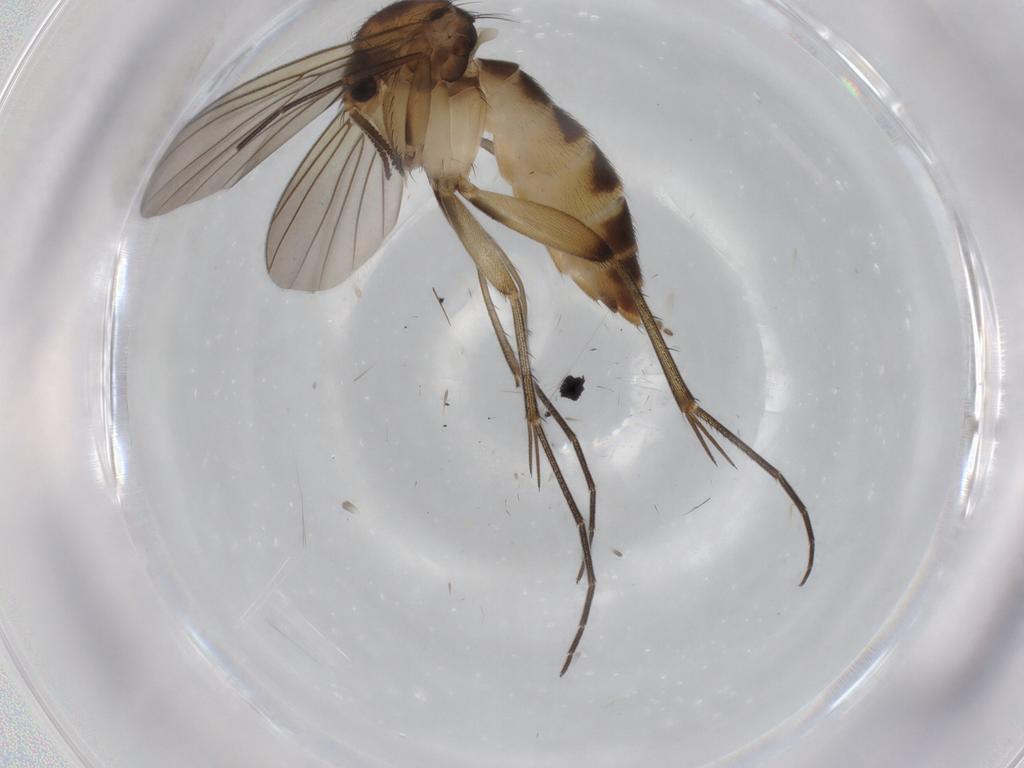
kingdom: Animalia
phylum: Arthropoda
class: Insecta
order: Diptera
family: Mycetophilidae
